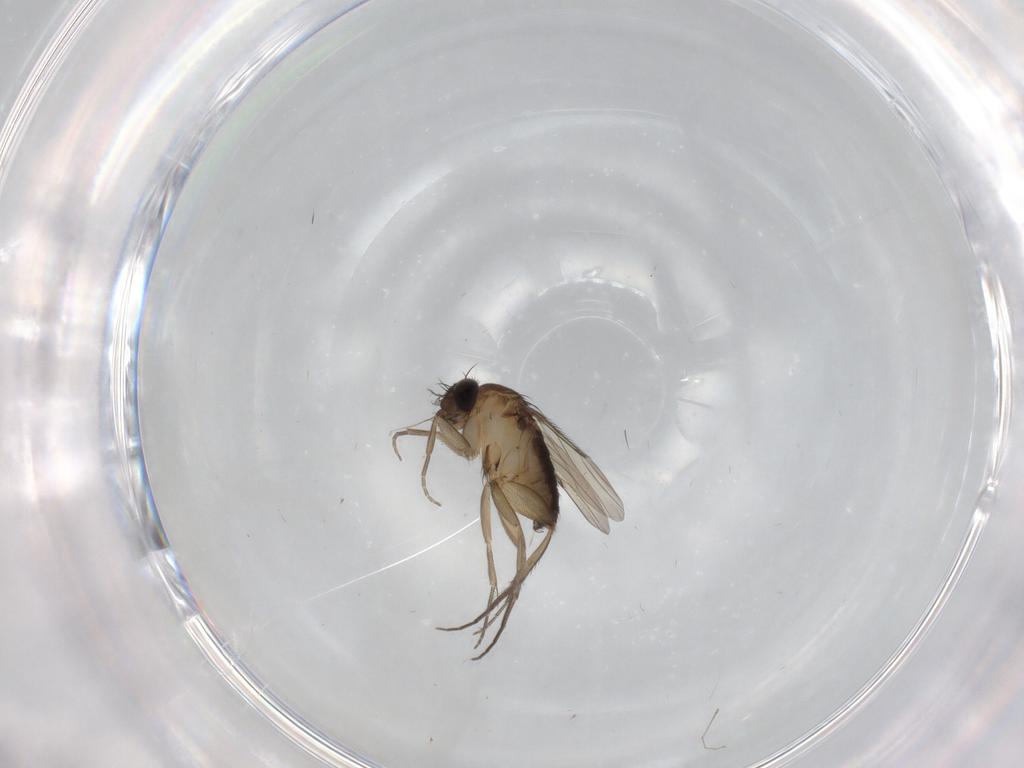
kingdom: Animalia
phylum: Arthropoda
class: Insecta
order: Diptera
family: Phoridae
